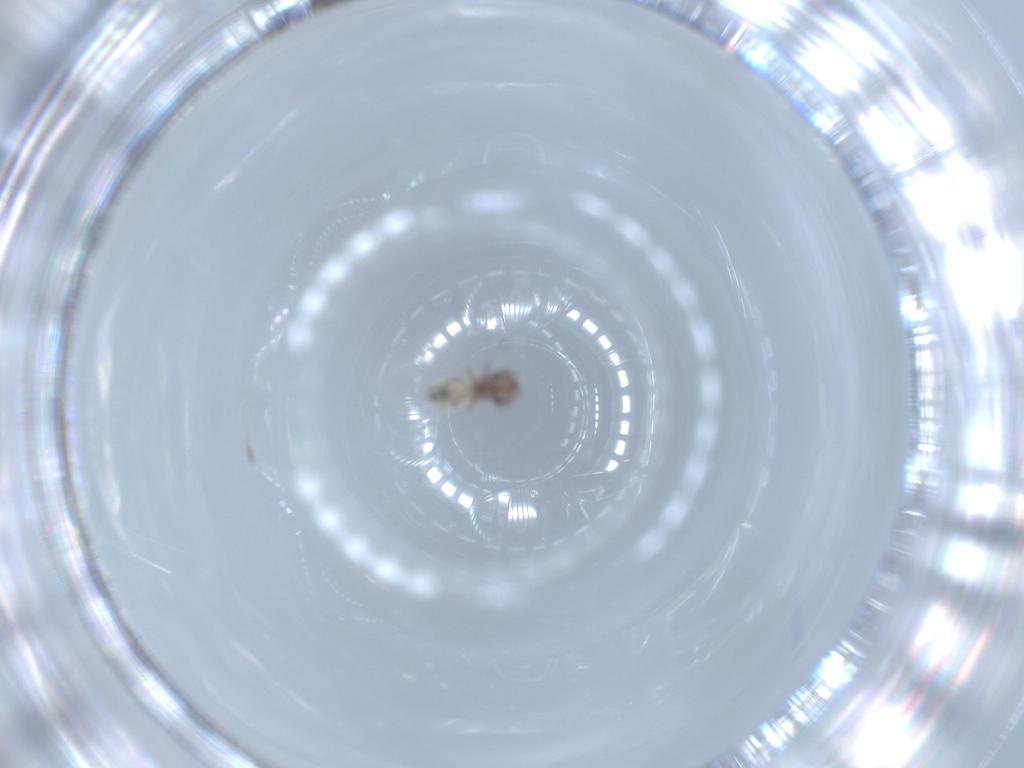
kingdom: Animalia
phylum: Arthropoda
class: Insecta
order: Psocodea
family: Lepidopsocidae
